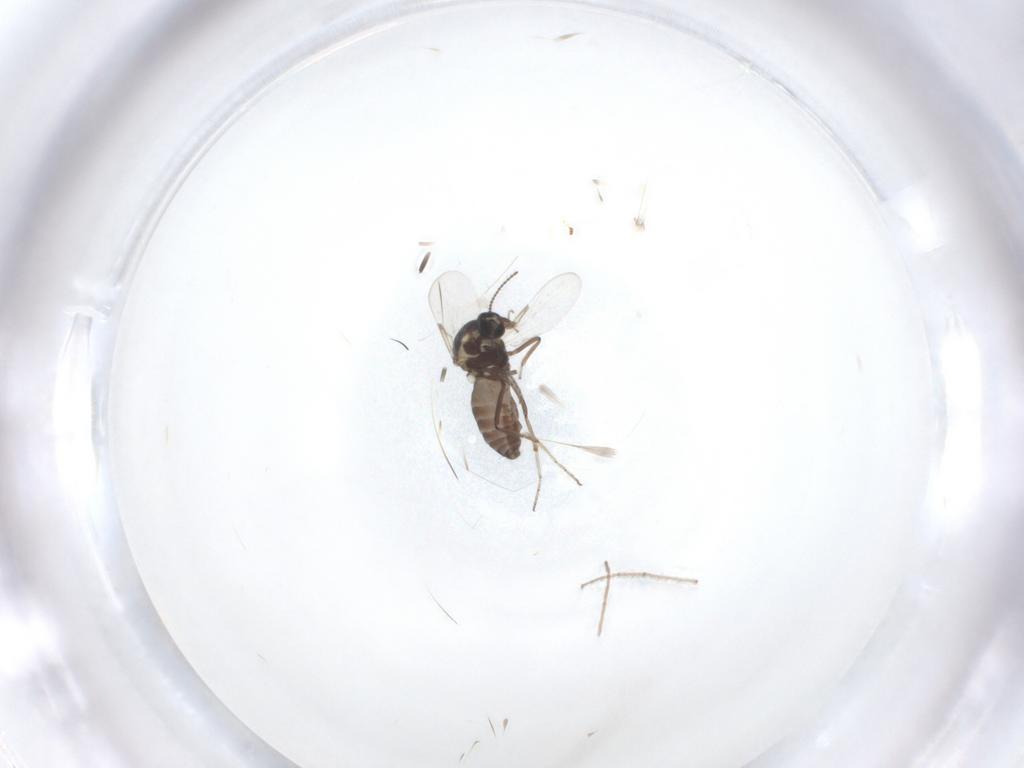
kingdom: Animalia
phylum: Arthropoda
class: Insecta
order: Diptera
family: Ceratopogonidae
